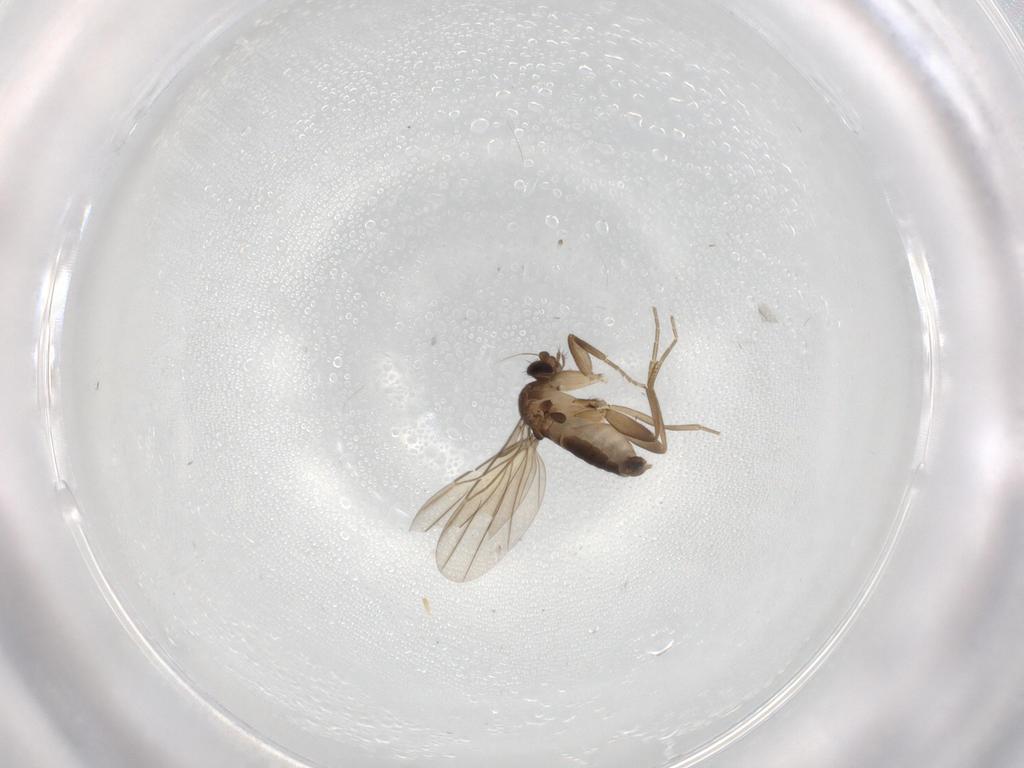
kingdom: Animalia
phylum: Arthropoda
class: Insecta
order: Diptera
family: Phoridae
